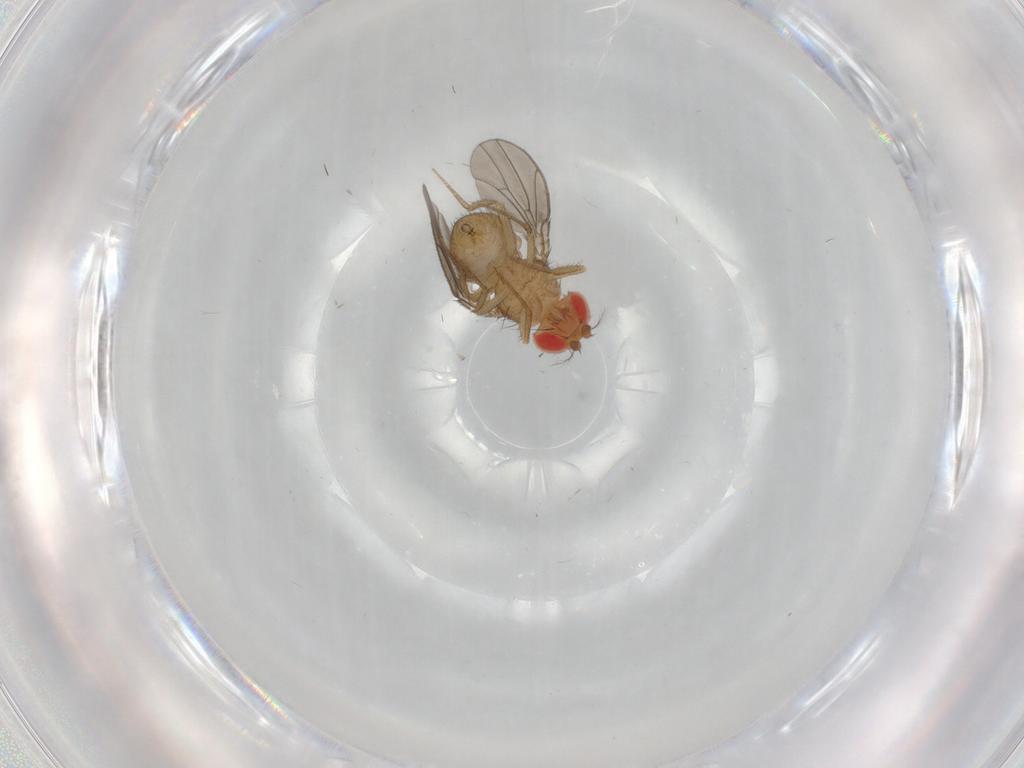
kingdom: Animalia
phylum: Arthropoda
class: Insecta
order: Diptera
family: Drosophilidae
